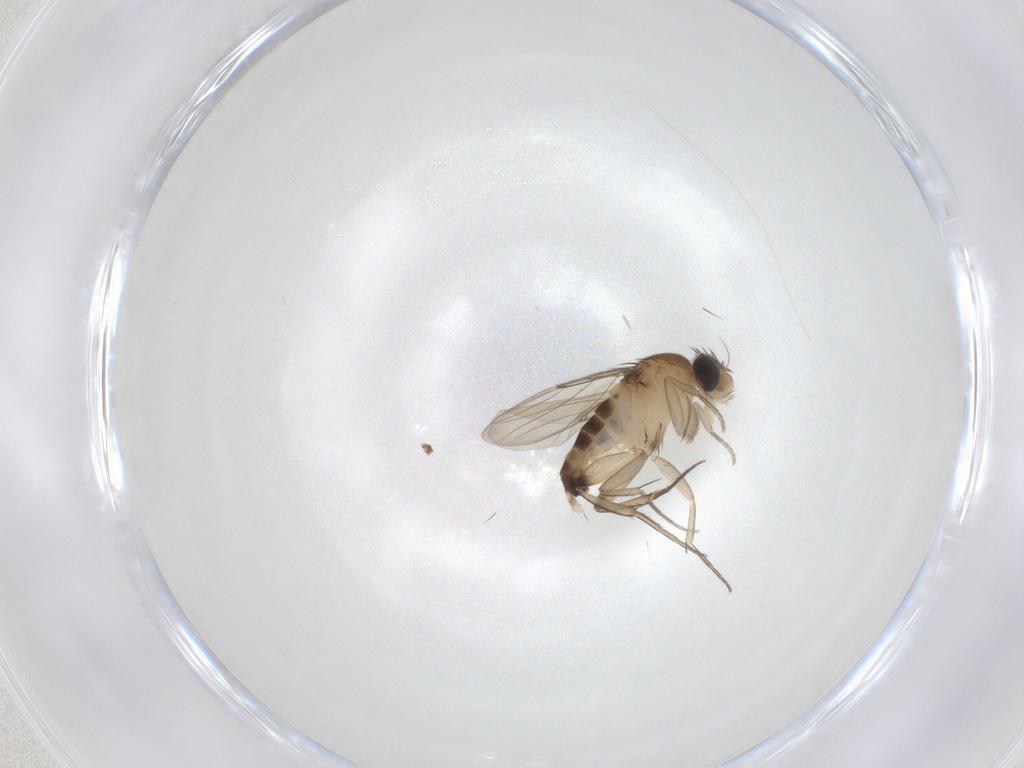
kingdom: Animalia
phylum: Arthropoda
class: Insecta
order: Diptera
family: Phoridae
